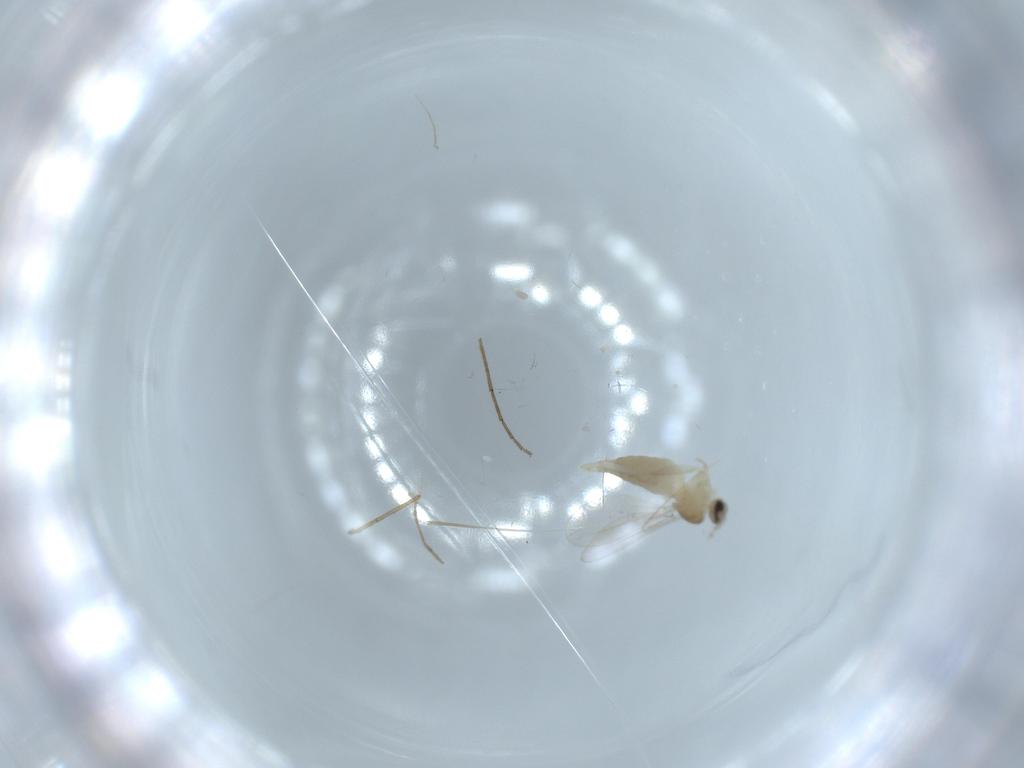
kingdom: Animalia
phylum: Arthropoda
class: Insecta
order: Diptera
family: Cecidomyiidae
